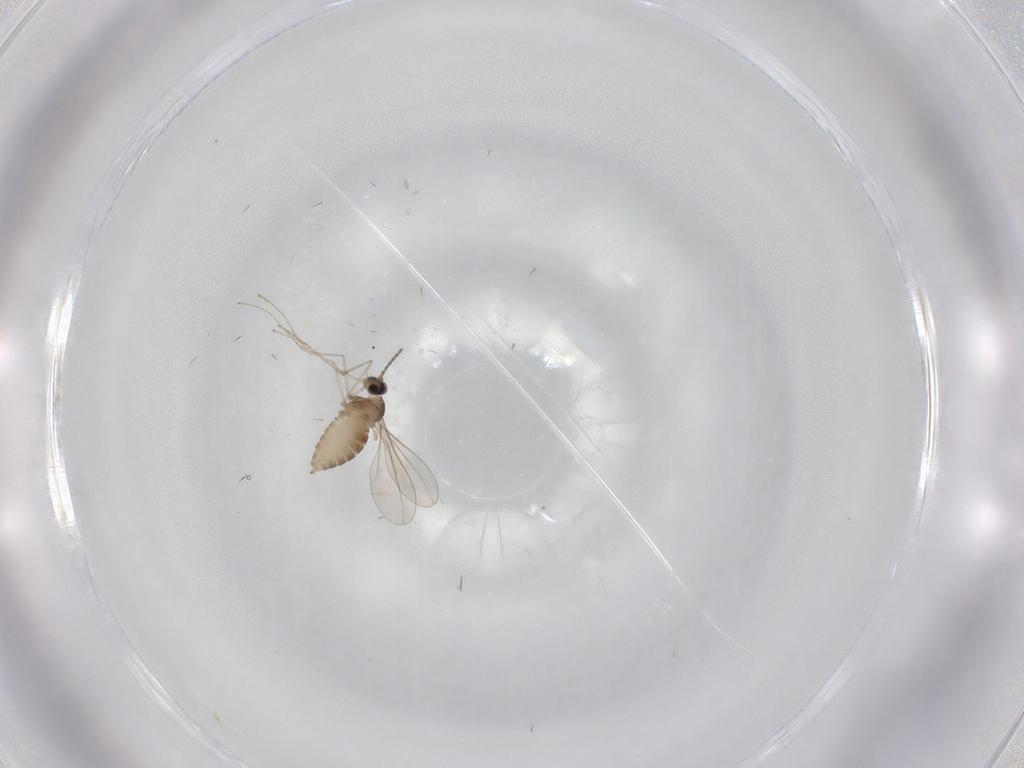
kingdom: Animalia
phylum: Arthropoda
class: Insecta
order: Diptera
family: Cecidomyiidae
